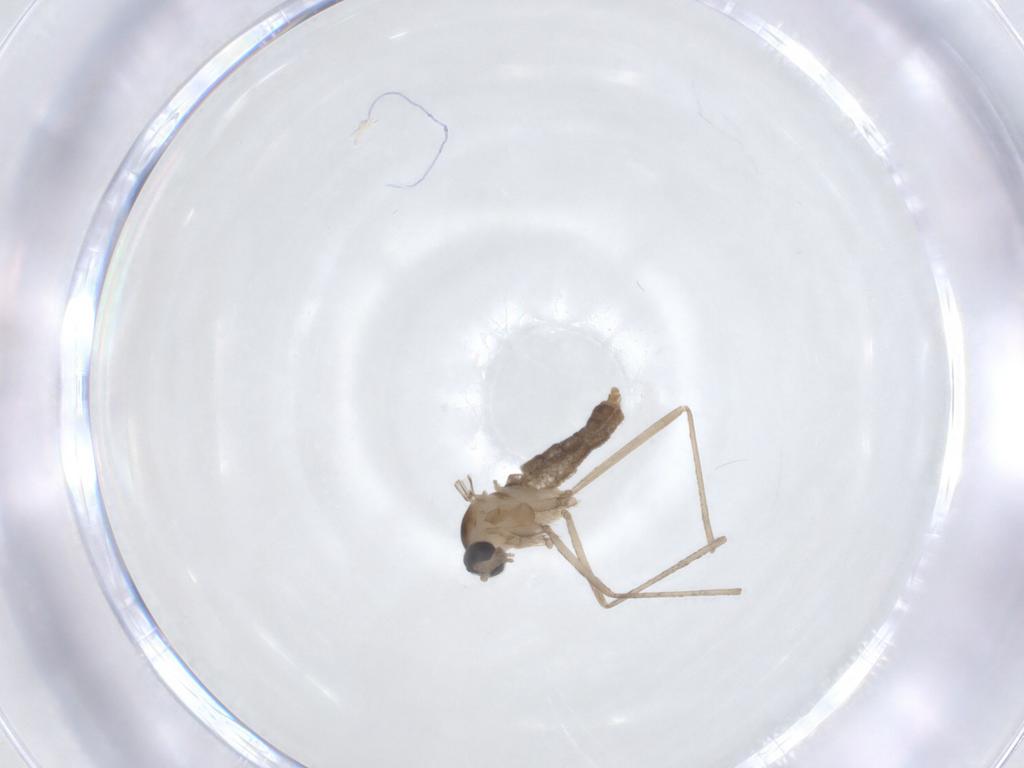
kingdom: Animalia
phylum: Arthropoda
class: Insecta
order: Diptera
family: Cecidomyiidae
